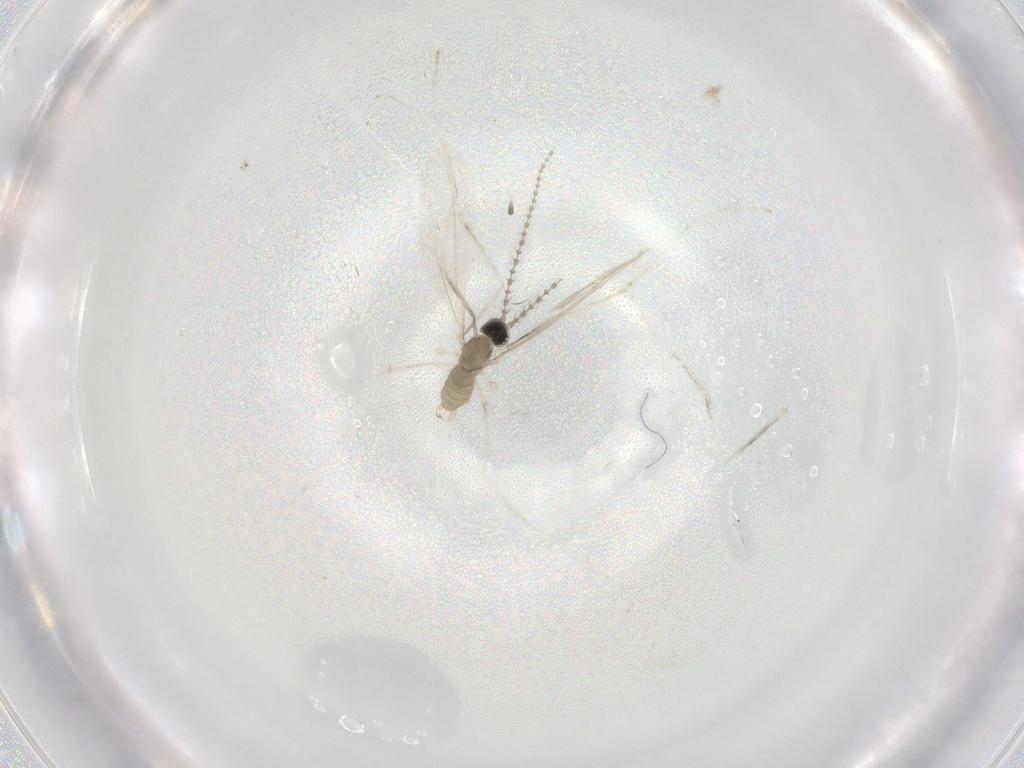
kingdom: Animalia
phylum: Arthropoda
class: Insecta
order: Diptera
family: Cecidomyiidae
